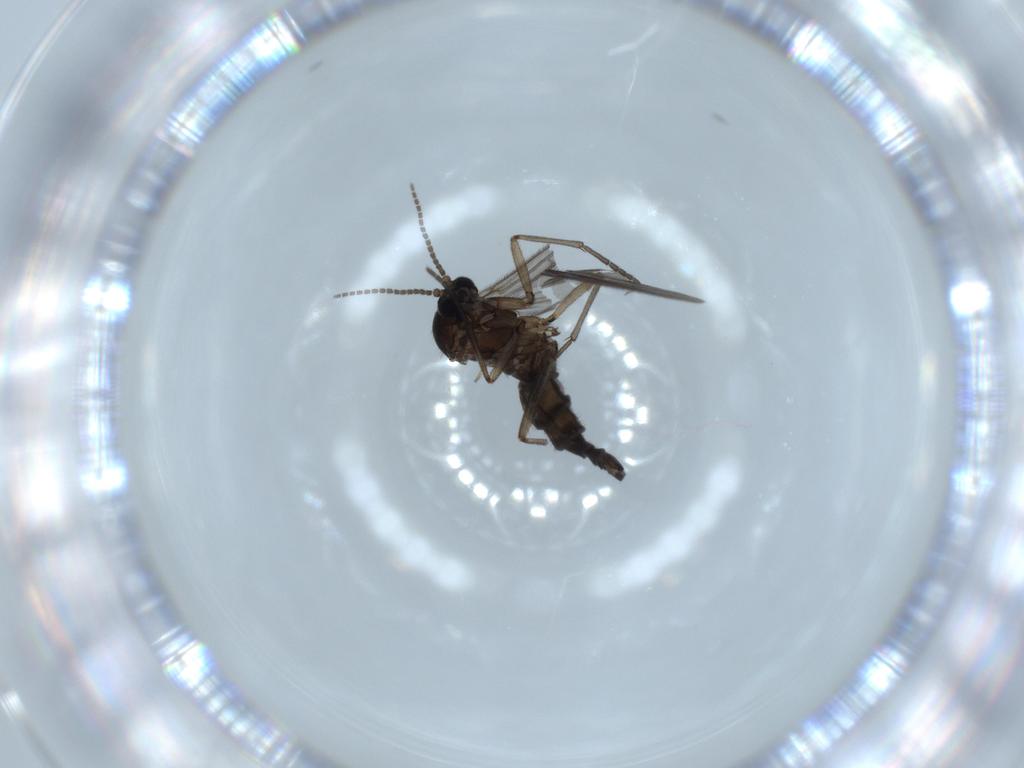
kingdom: Animalia
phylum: Arthropoda
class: Insecta
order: Diptera
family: Sciaridae
